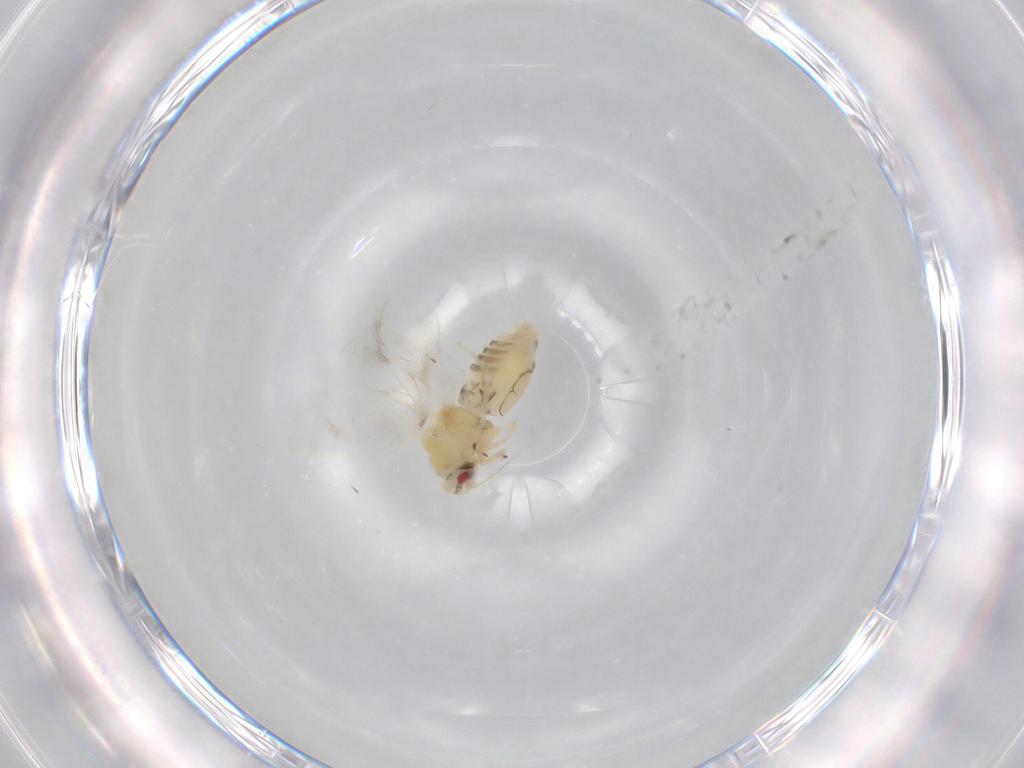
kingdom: Animalia
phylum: Arthropoda
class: Insecta
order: Hemiptera
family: Aleyrodidae
